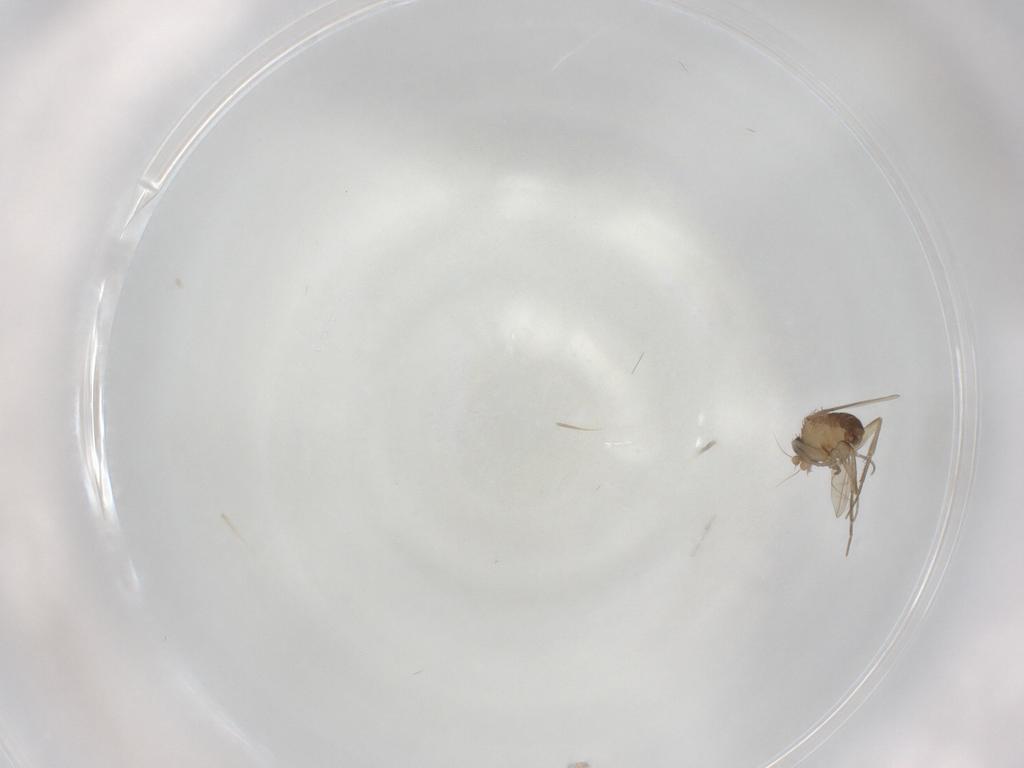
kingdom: Animalia
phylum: Arthropoda
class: Insecta
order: Diptera
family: Phoridae
